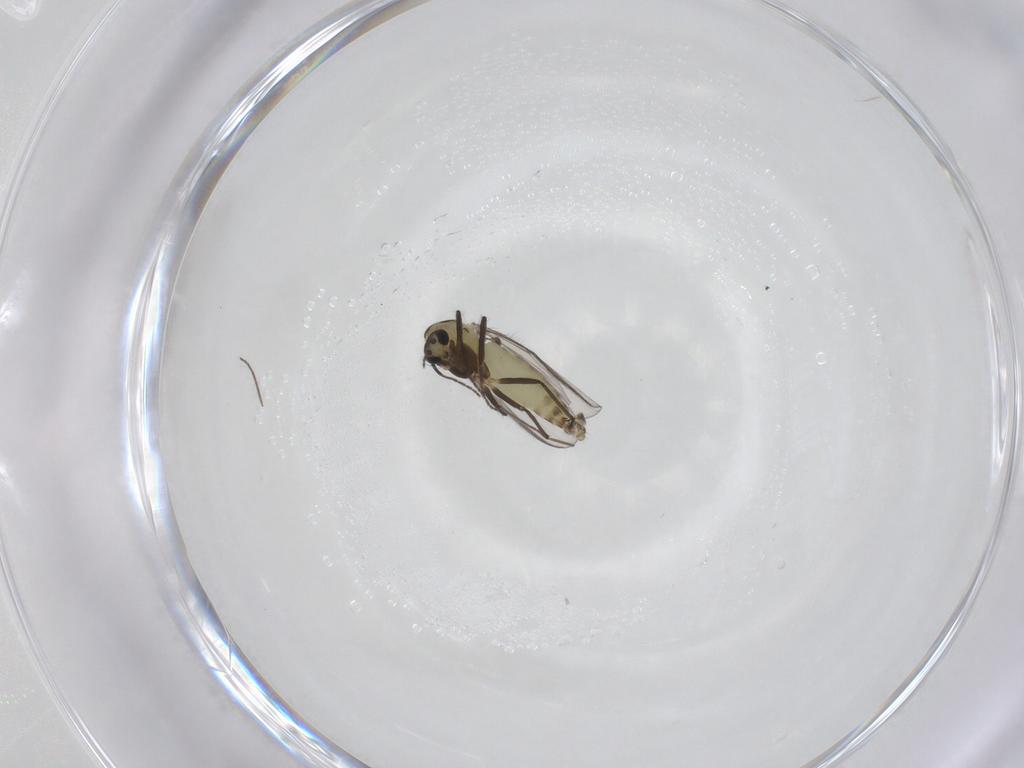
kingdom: Animalia
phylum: Arthropoda
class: Insecta
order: Diptera
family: Chironomidae
